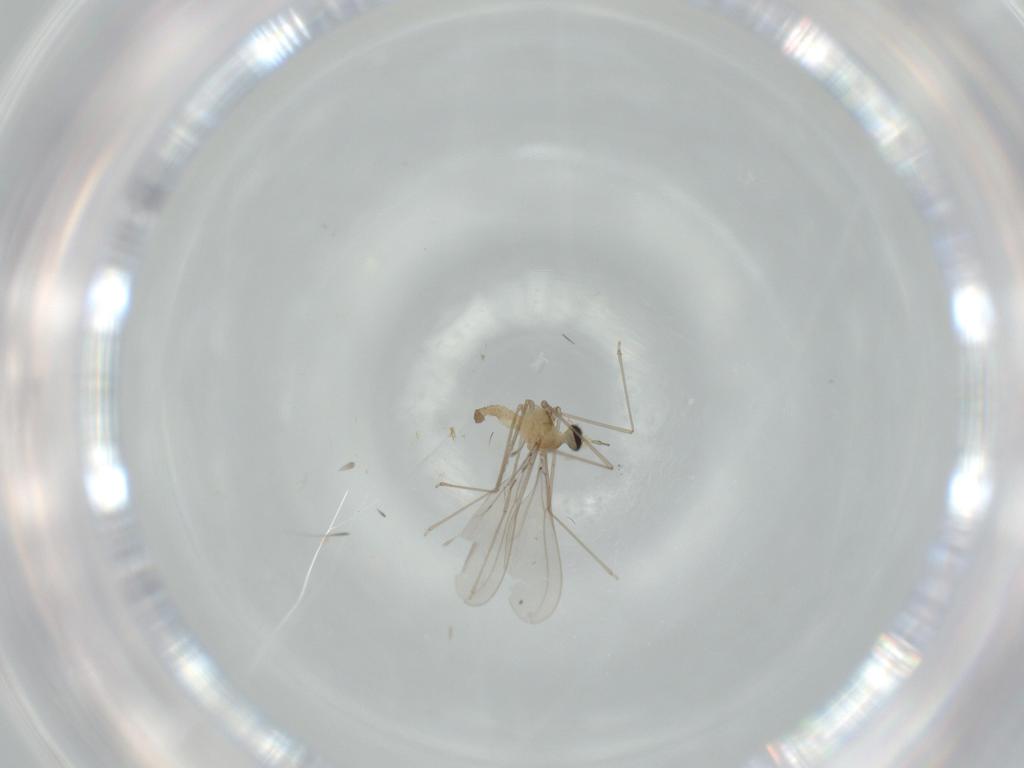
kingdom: Animalia
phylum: Arthropoda
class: Insecta
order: Diptera
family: Cecidomyiidae
